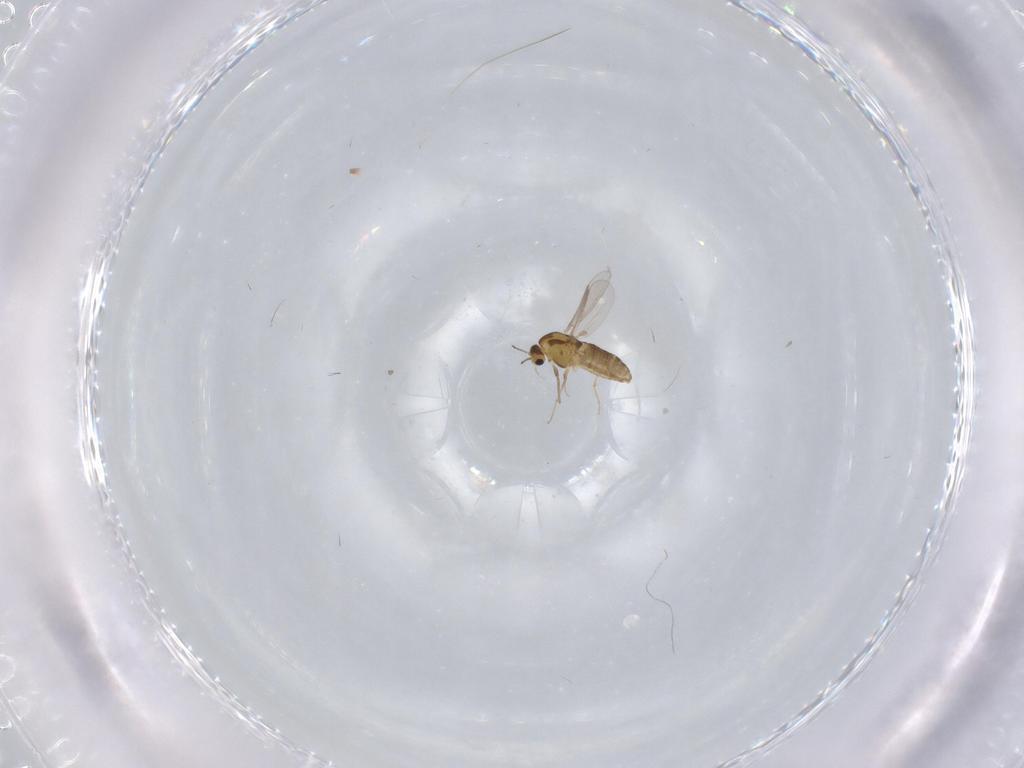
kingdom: Animalia
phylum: Arthropoda
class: Insecta
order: Diptera
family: Chironomidae
